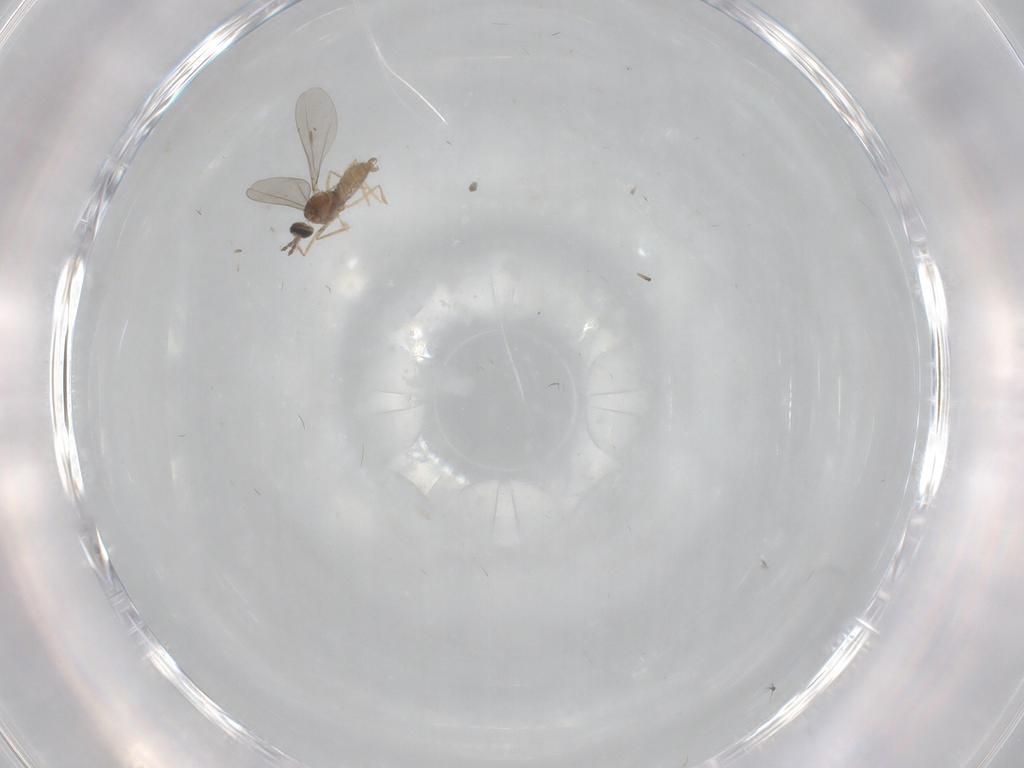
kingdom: Animalia
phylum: Arthropoda
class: Insecta
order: Diptera
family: Phoridae
